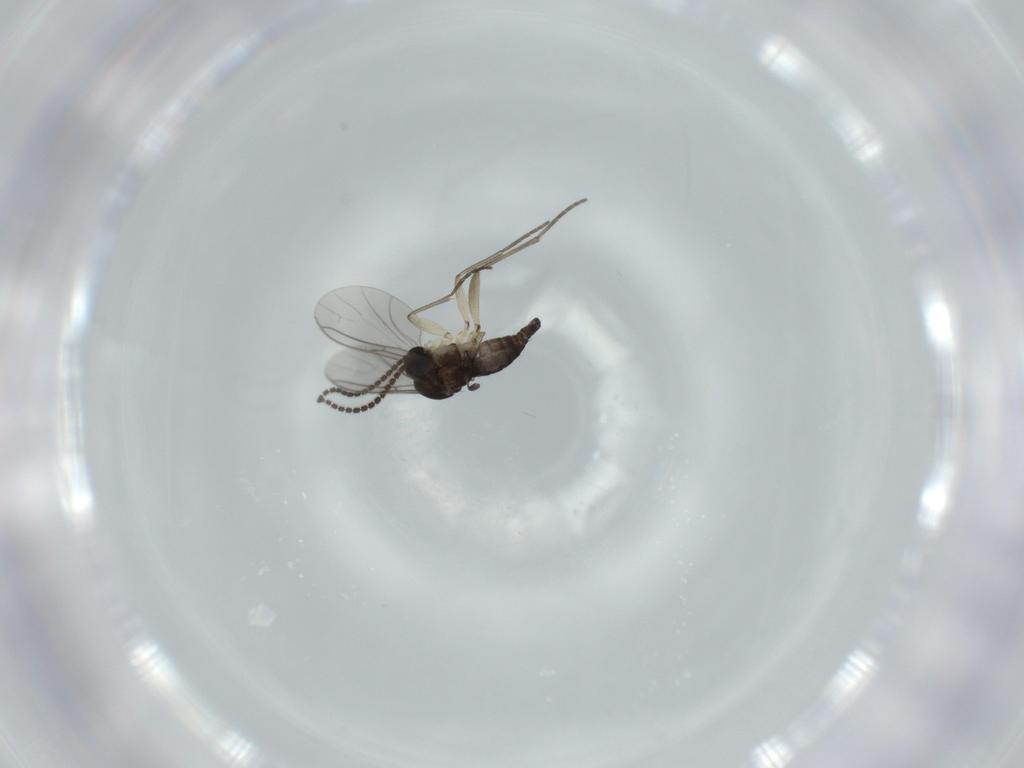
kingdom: Animalia
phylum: Arthropoda
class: Insecta
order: Diptera
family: Sciaridae
